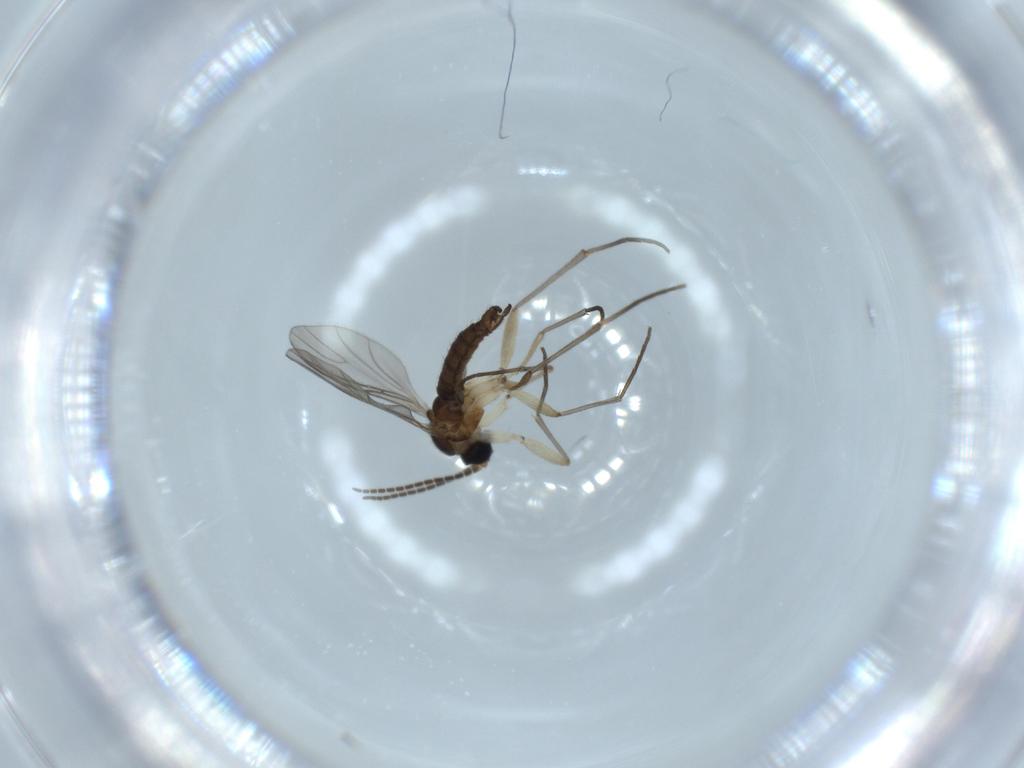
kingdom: Animalia
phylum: Arthropoda
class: Insecta
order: Diptera
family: Sciaridae
